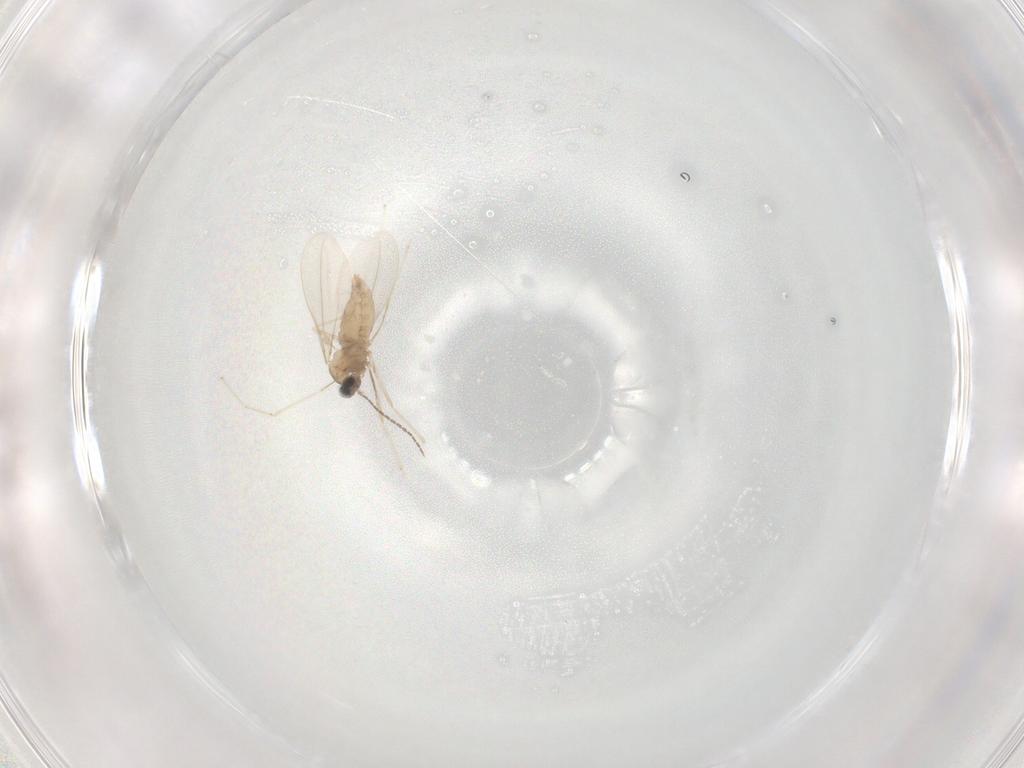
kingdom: Animalia
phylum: Arthropoda
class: Insecta
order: Diptera
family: Cecidomyiidae
